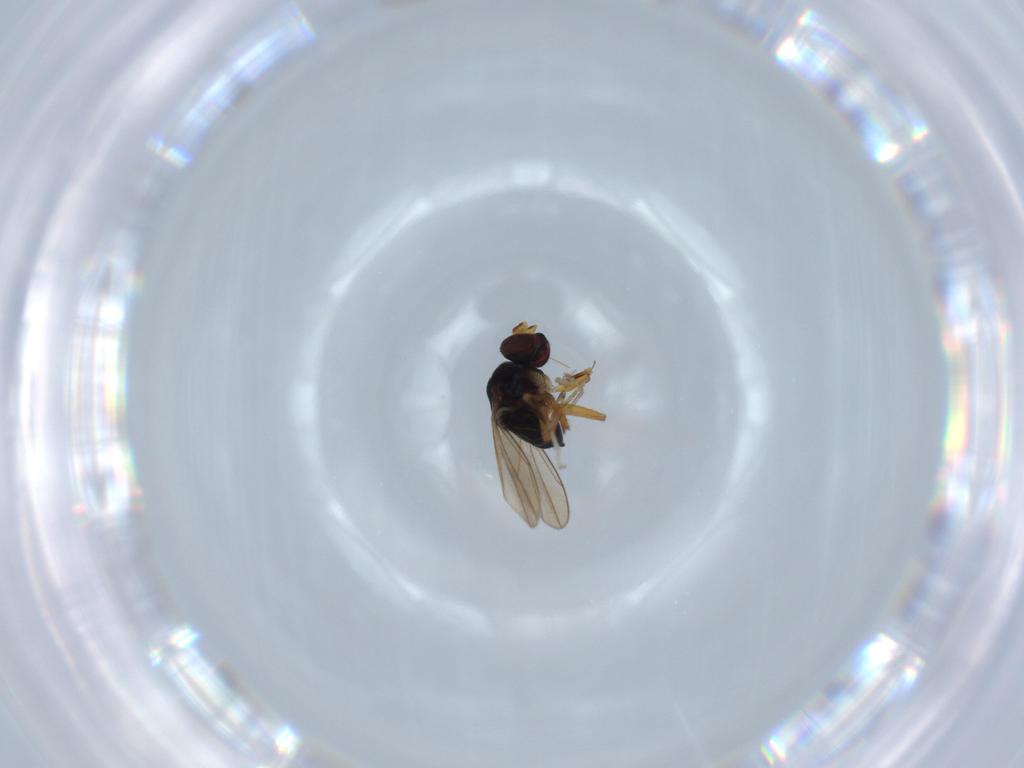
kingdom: Animalia
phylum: Arthropoda
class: Insecta
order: Diptera
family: Ephydridae
